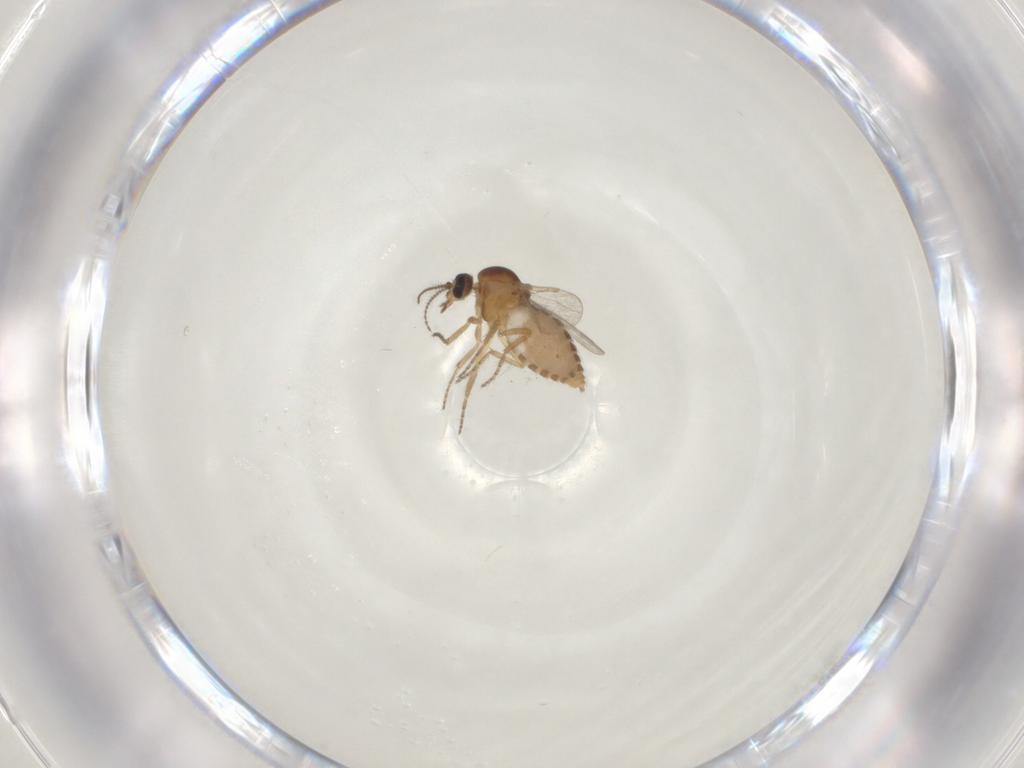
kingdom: Animalia
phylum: Arthropoda
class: Insecta
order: Diptera
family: Ceratopogonidae
